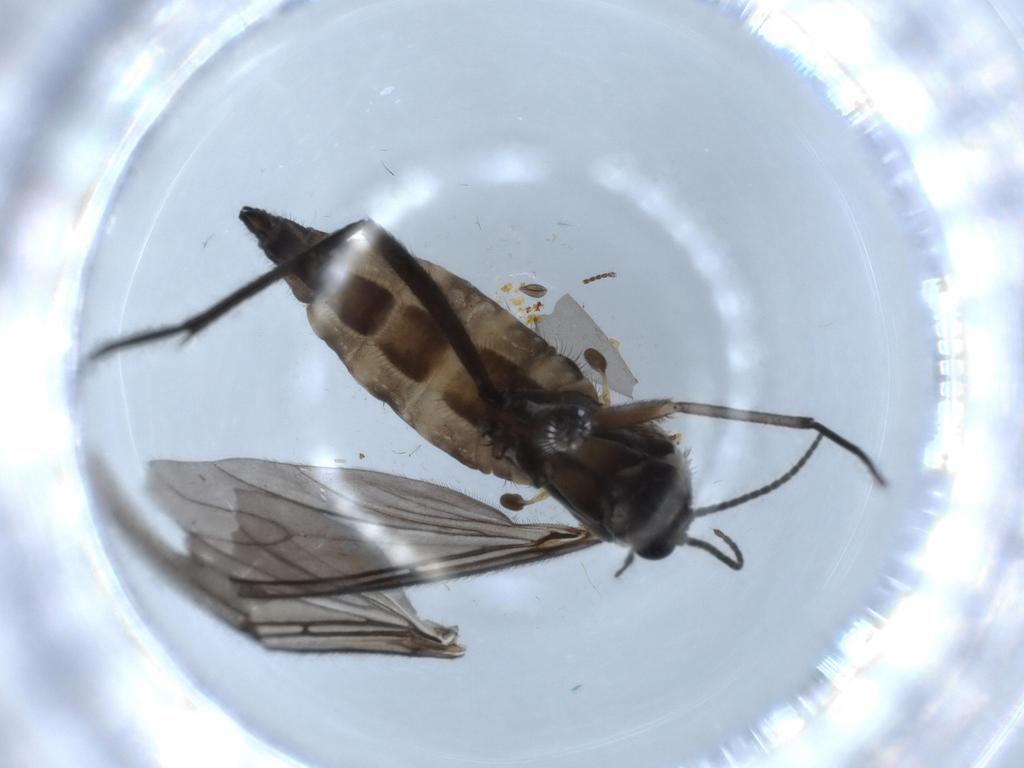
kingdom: Animalia
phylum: Arthropoda
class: Insecta
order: Diptera
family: Sciaridae
